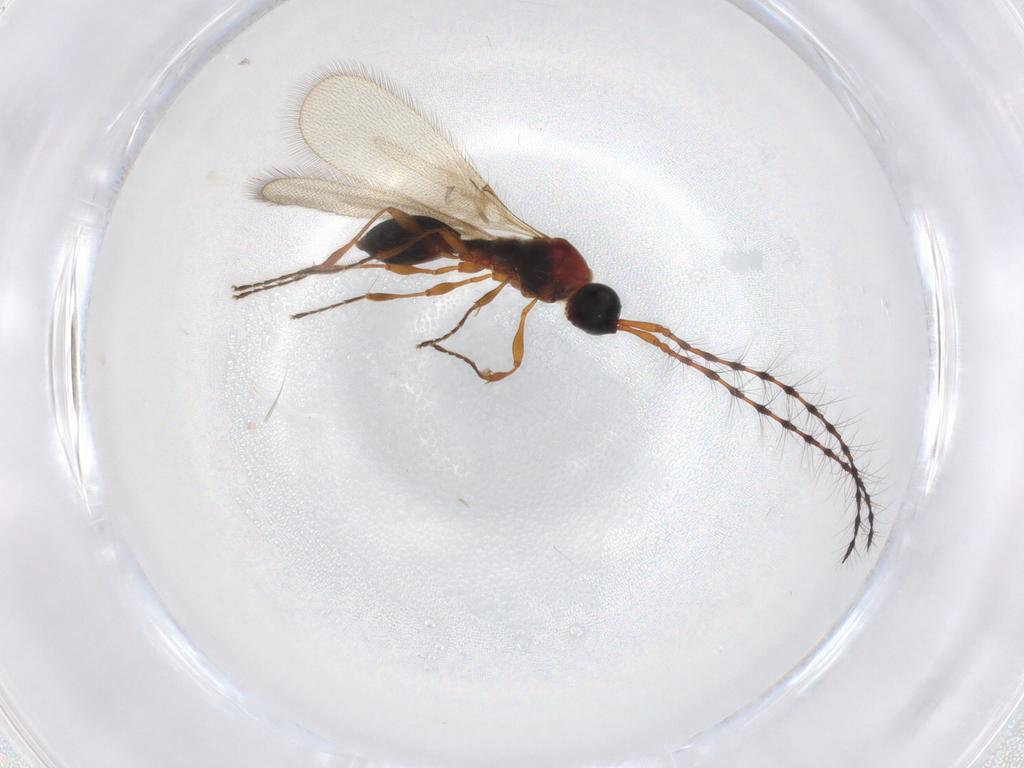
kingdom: Animalia
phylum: Arthropoda
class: Insecta
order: Hymenoptera
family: Diapriidae
